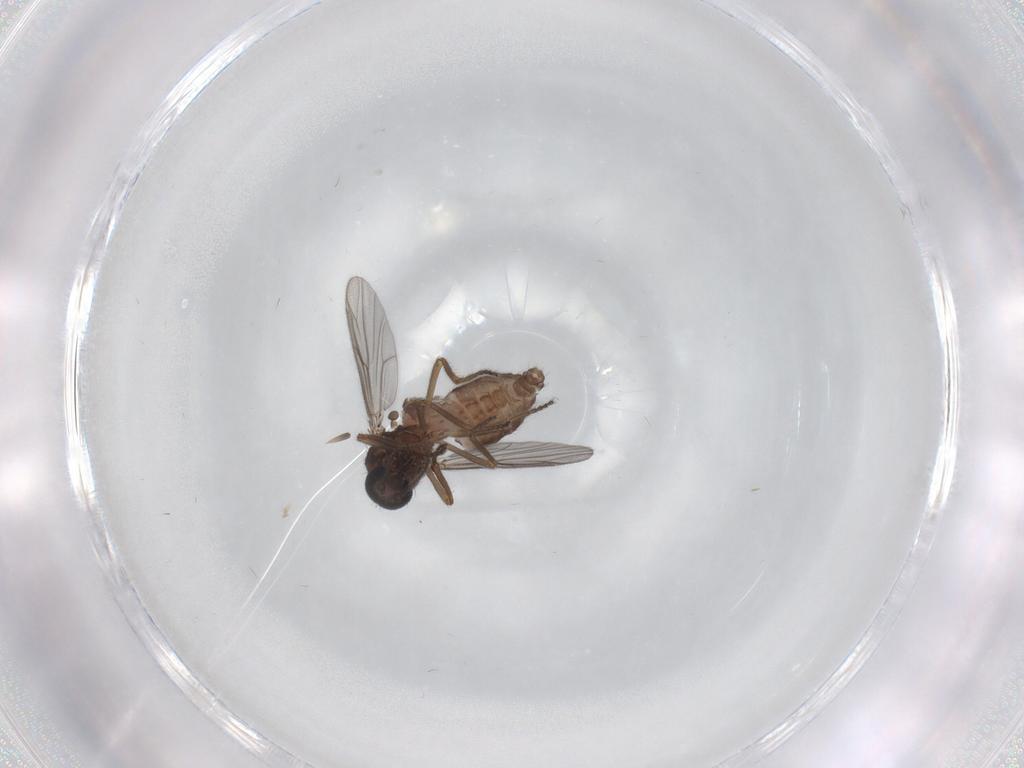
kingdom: Animalia
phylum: Arthropoda
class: Insecta
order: Diptera
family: Ceratopogonidae
